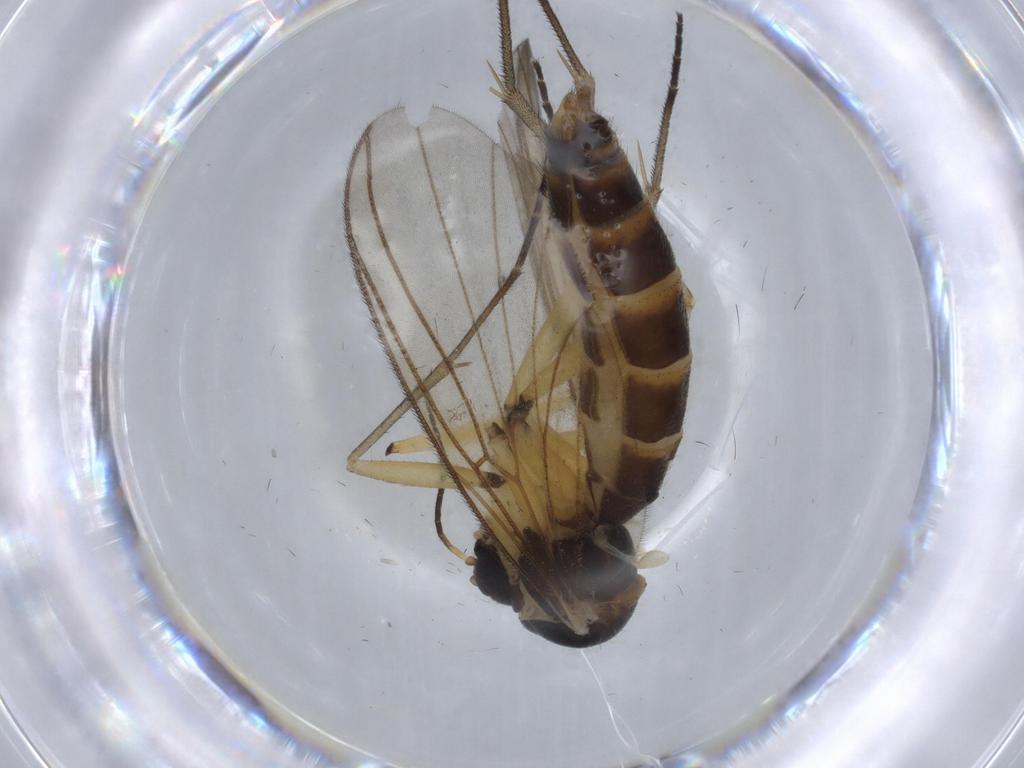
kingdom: Animalia
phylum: Arthropoda
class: Insecta
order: Diptera
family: Mycetophilidae
